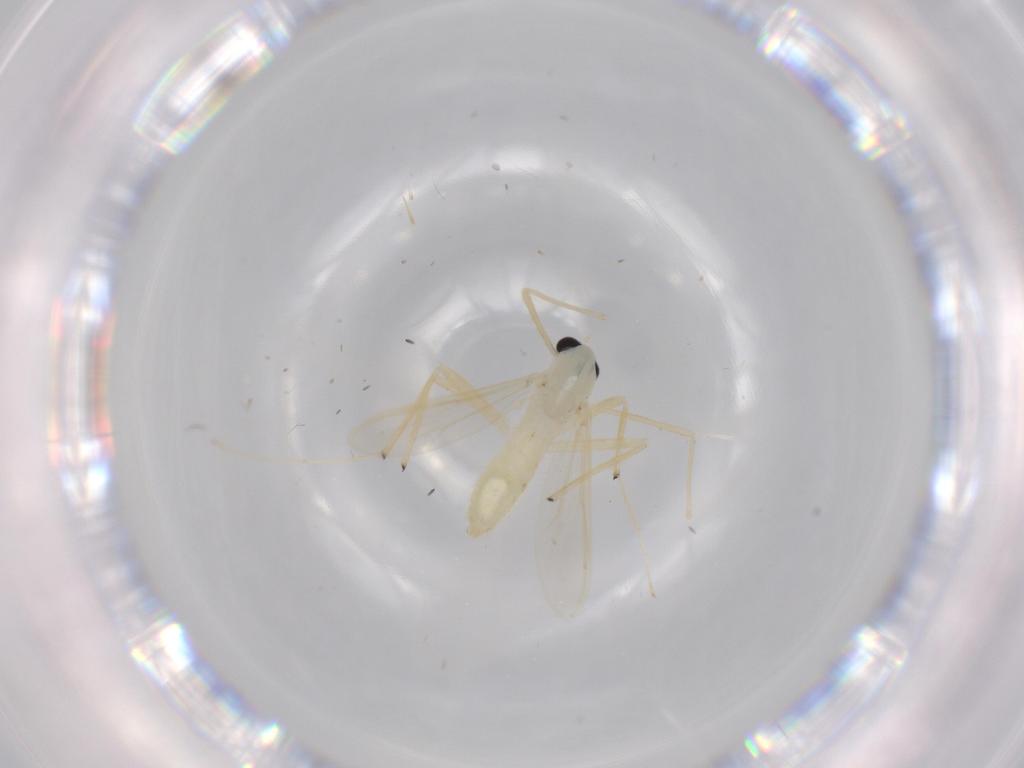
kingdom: Animalia
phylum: Arthropoda
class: Insecta
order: Diptera
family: Chironomidae
